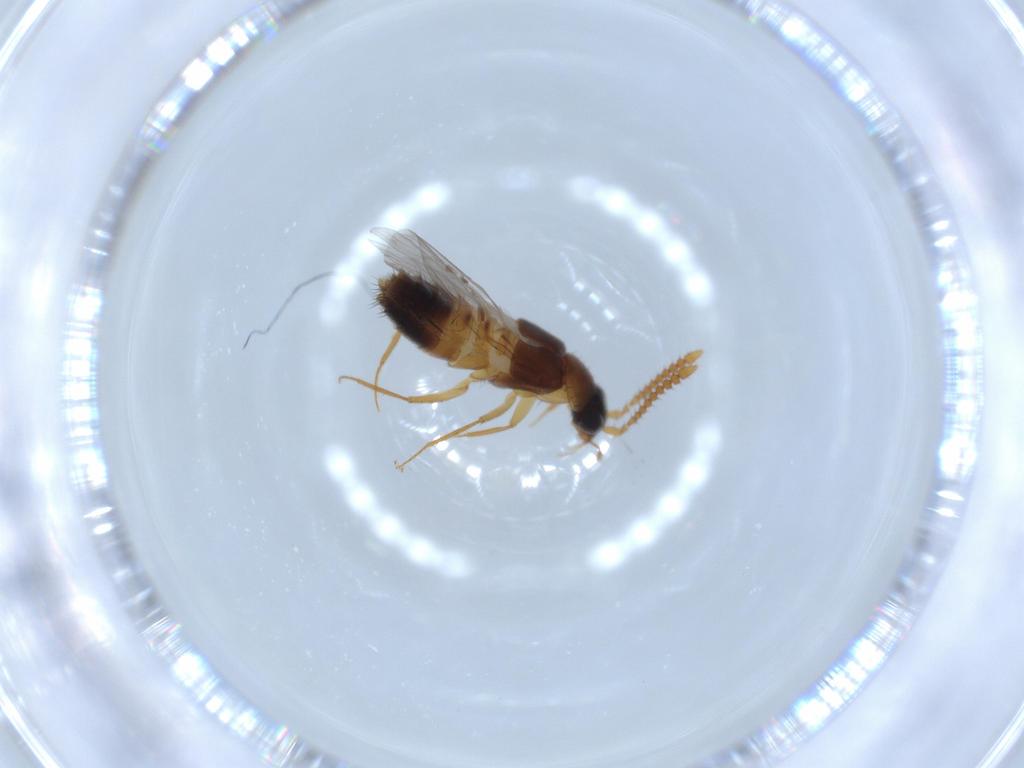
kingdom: Animalia
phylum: Arthropoda
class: Insecta
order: Coleoptera
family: Staphylinidae
